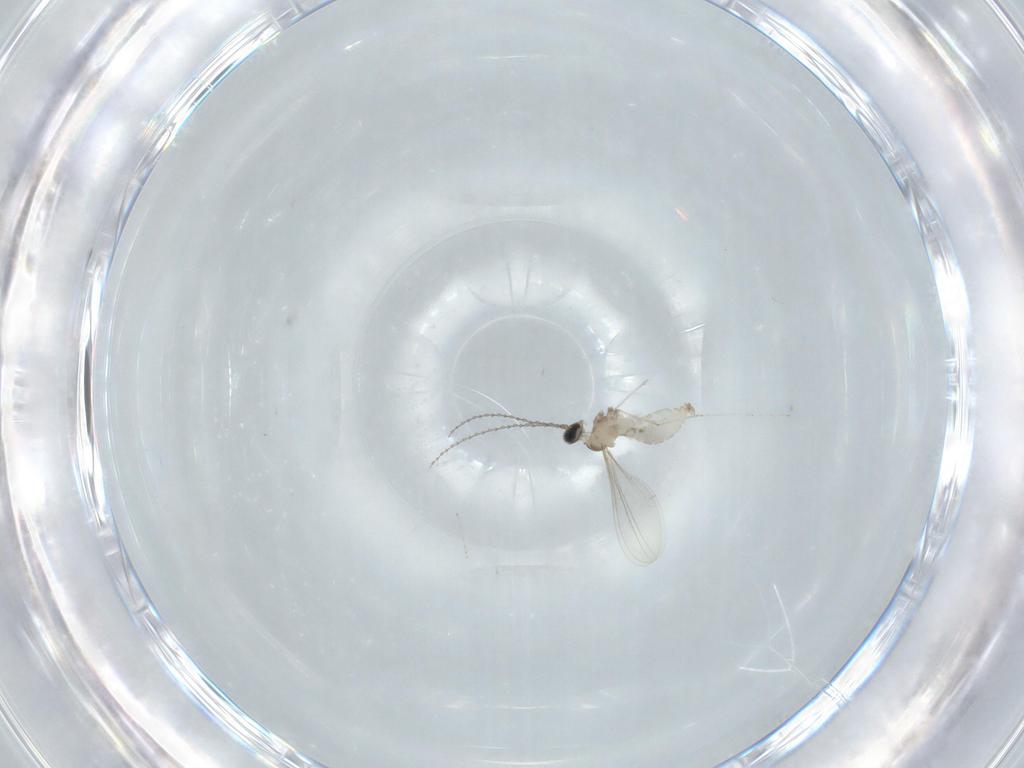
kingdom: Animalia
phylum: Arthropoda
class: Insecta
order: Diptera
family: Cecidomyiidae
